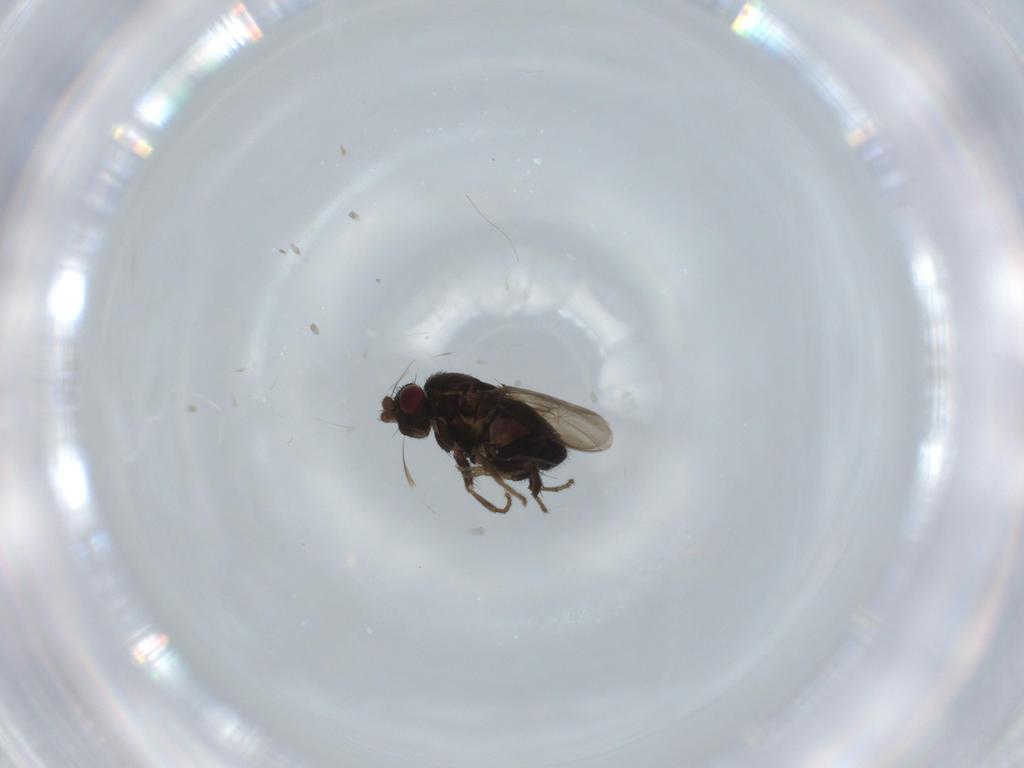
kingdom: Animalia
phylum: Arthropoda
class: Insecta
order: Diptera
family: Sphaeroceridae
